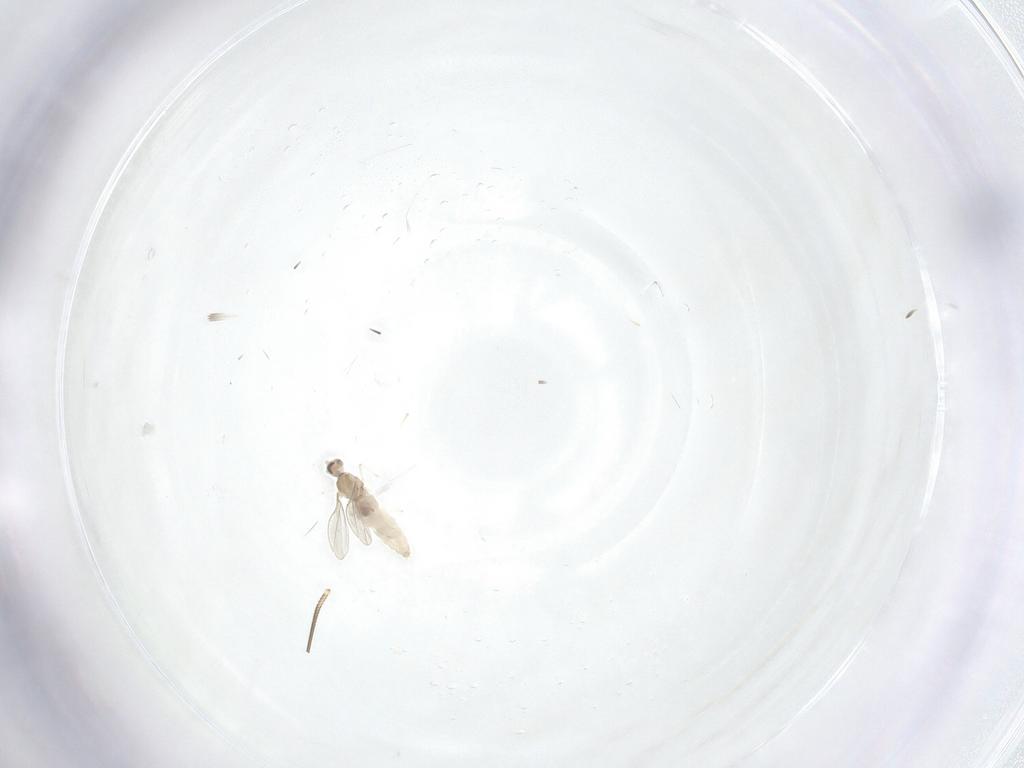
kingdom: Animalia
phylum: Arthropoda
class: Insecta
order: Diptera
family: Cecidomyiidae
